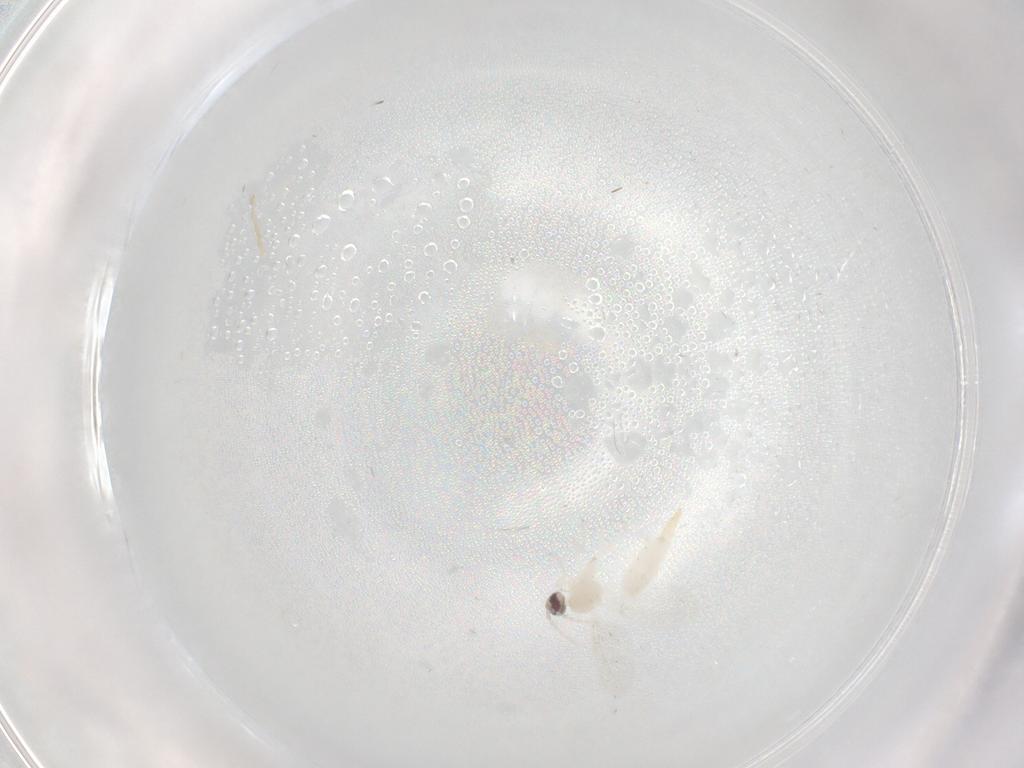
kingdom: Animalia
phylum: Arthropoda
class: Insecta
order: Diptera
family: Cecidomyiidae
